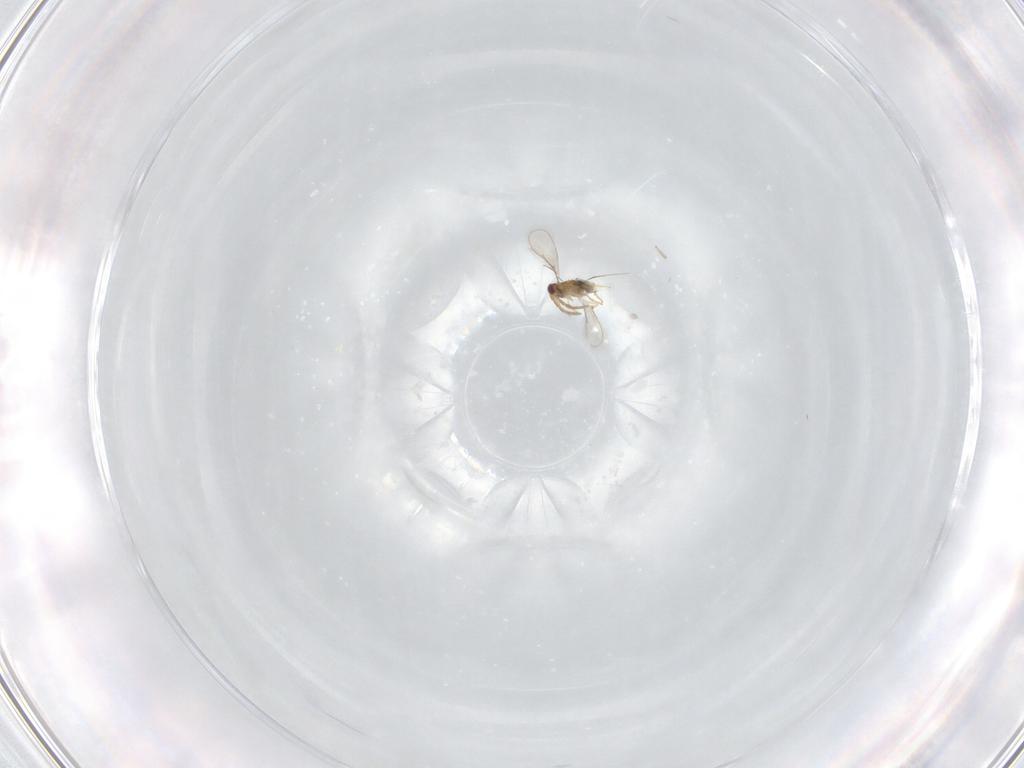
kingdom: Animalia
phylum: Arthropoda
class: Insecta
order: Hymenoptera
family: Aphelinidae
